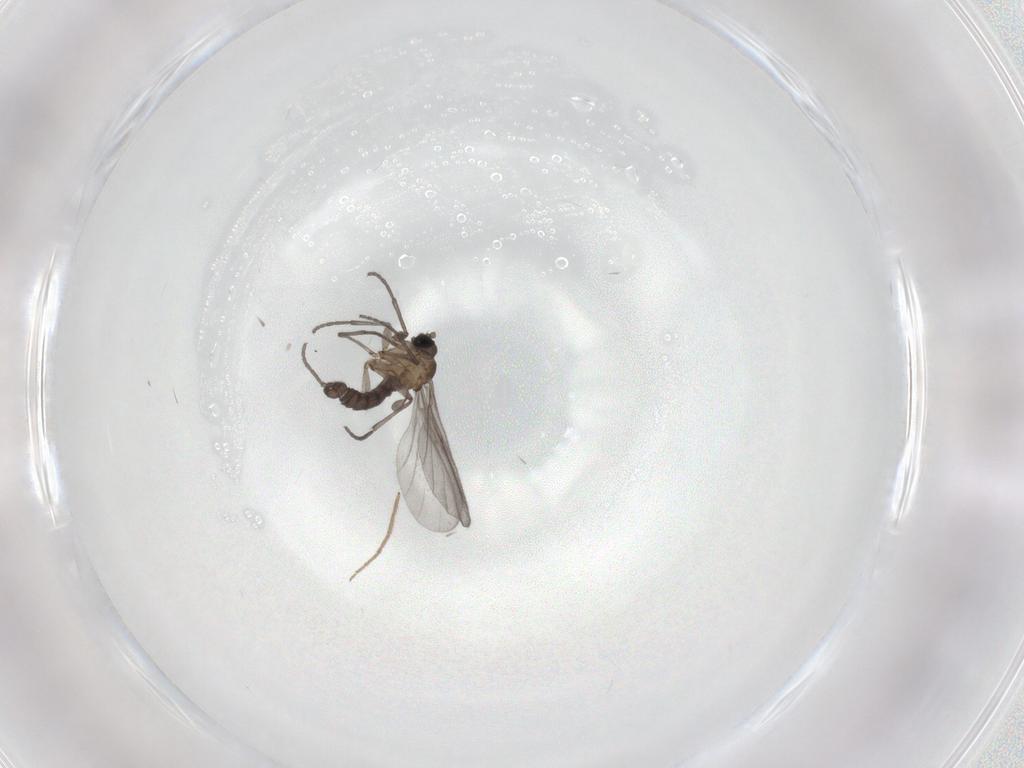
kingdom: Animalia
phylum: Arthropoda
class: Insecta
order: Diptera
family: Sciaridae
